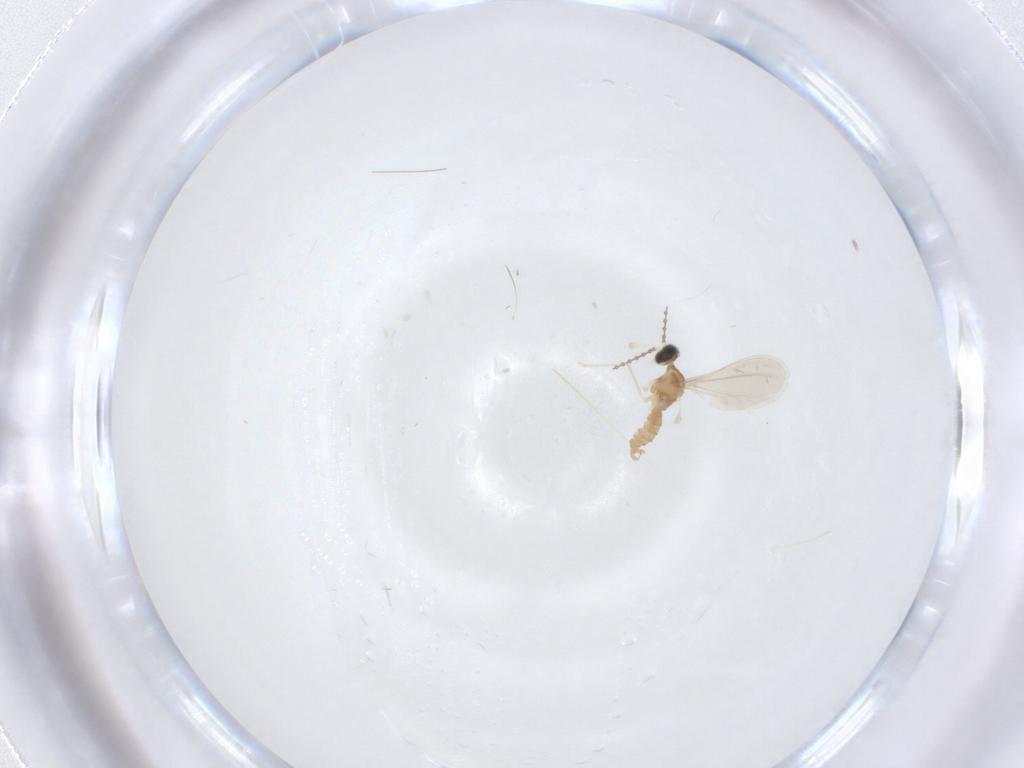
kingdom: Animalia
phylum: Arthropoda
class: Insecta
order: Diptera
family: Cecidomyiidae
